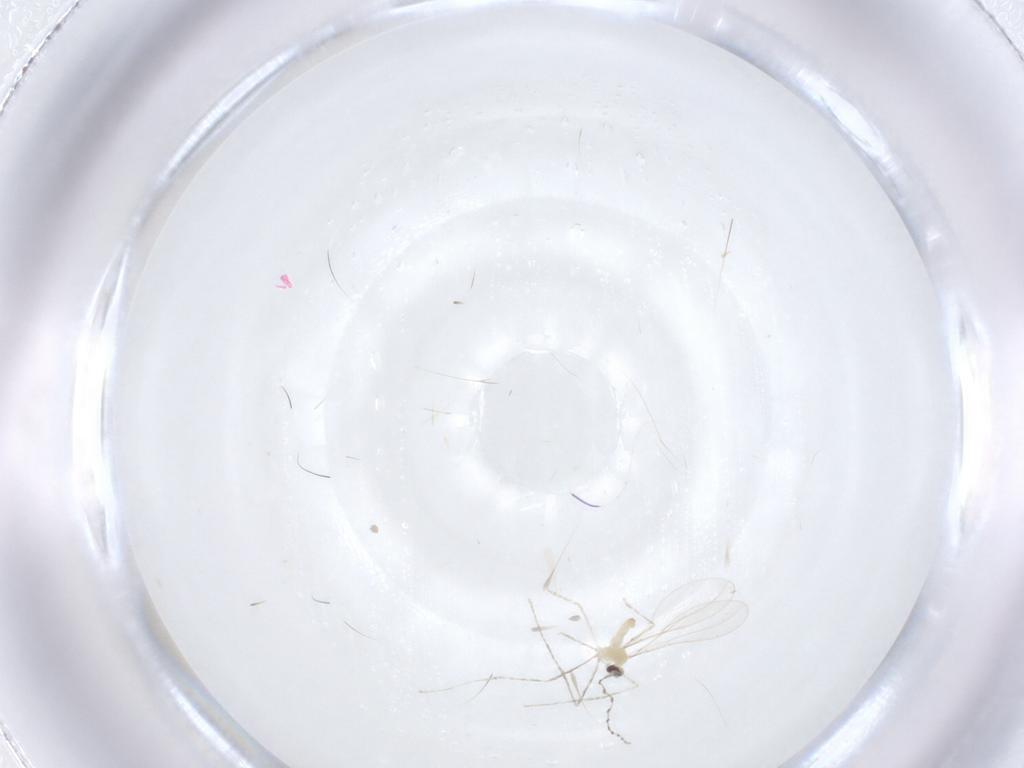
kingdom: Animalia
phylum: Arthropoda
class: Insecta
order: Diptera
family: Cecidomyiidae
